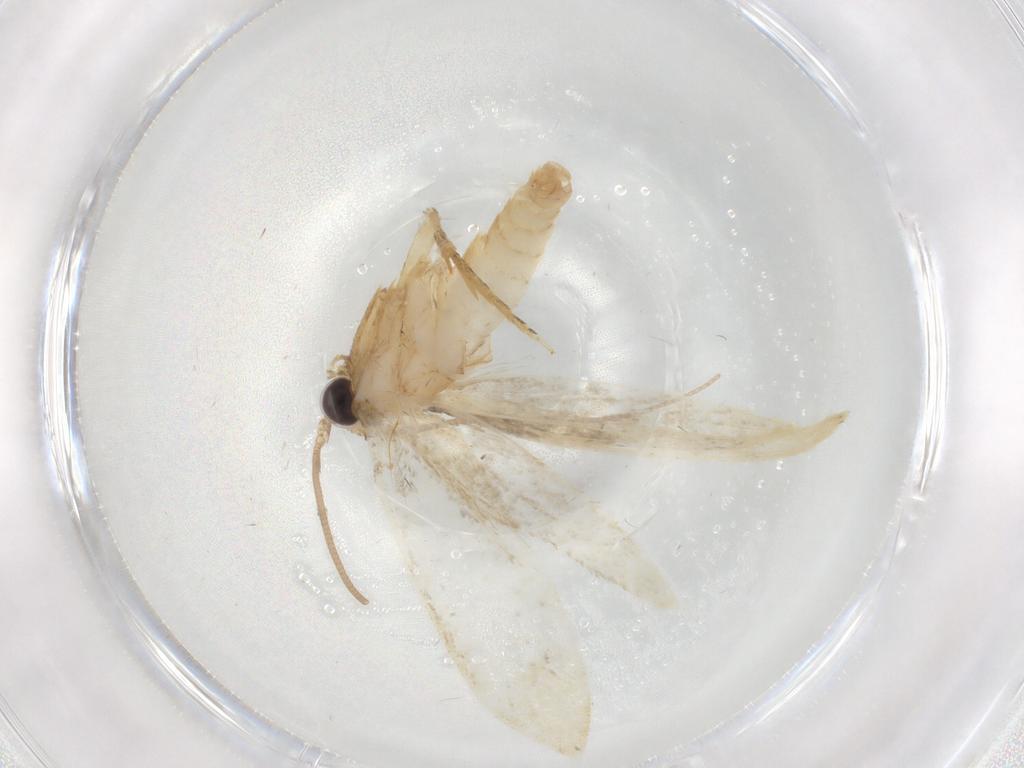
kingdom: Animalia
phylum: Arthropoda
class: Insecta
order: Lepidoptera
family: Tineidae
